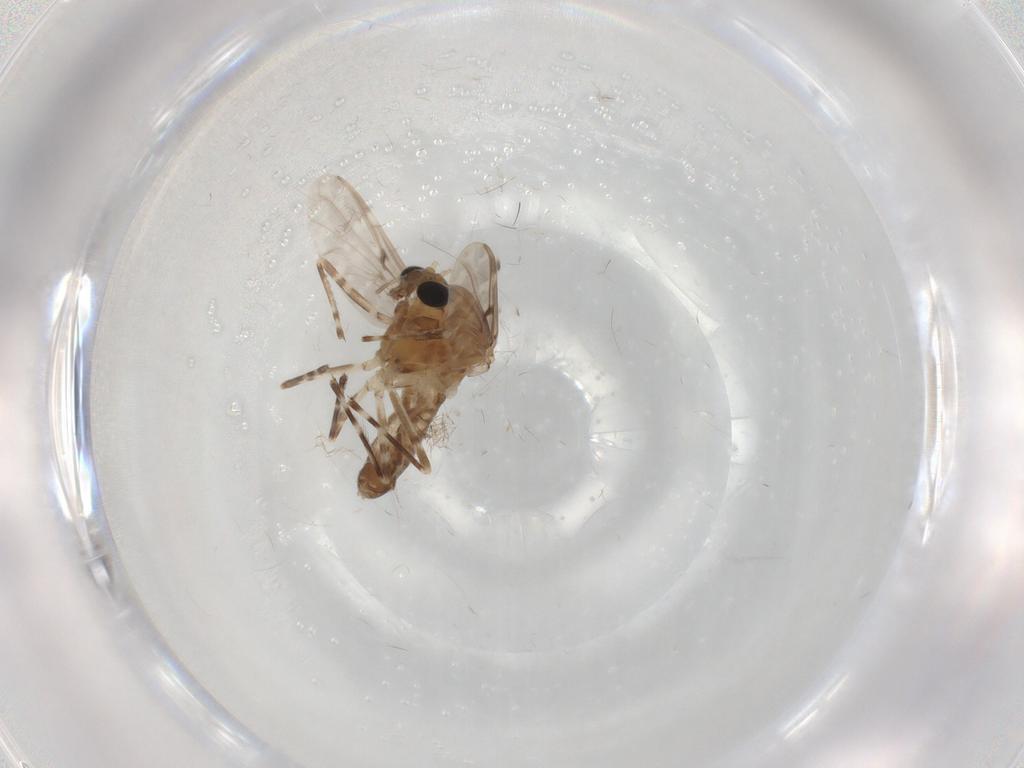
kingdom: Animalia
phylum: Arthropoda
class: Insecta
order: Diptera
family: Chironomidae
